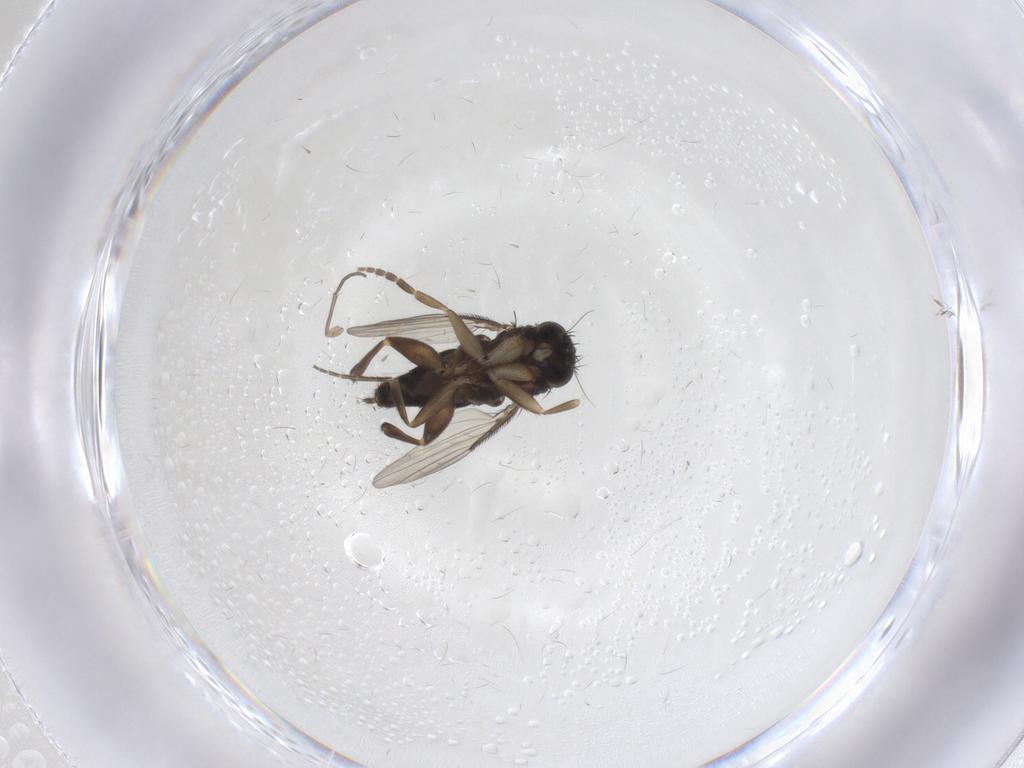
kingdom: Animalia
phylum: Arthropoda
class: Insecta
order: Diptera
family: Phoridae
